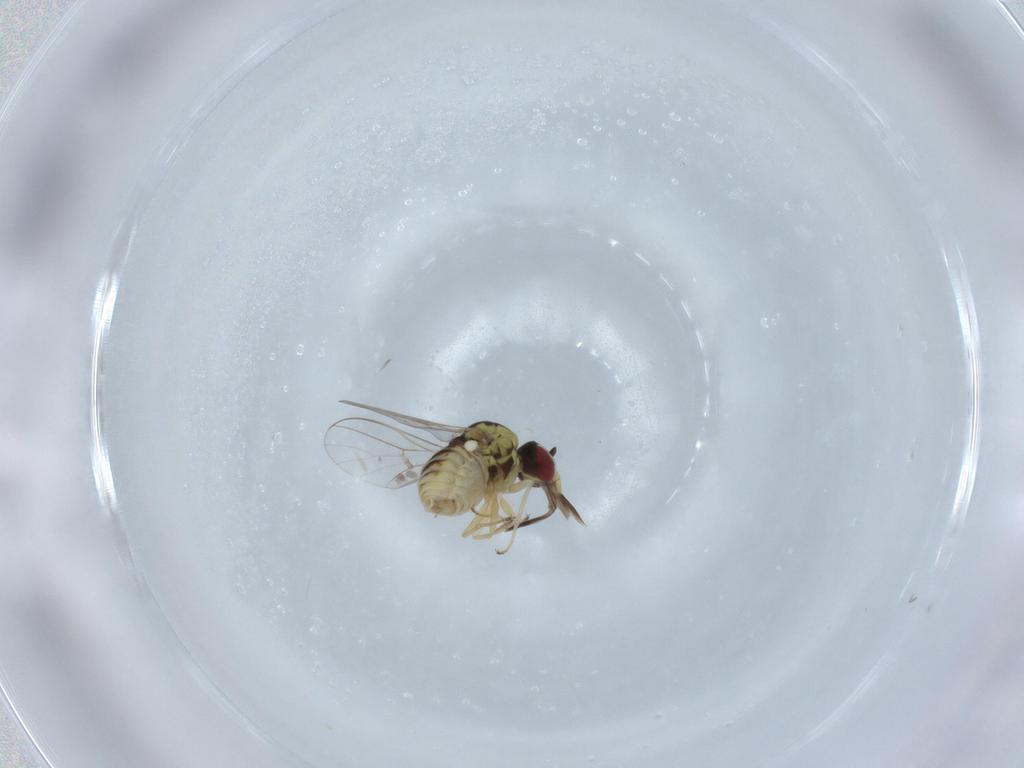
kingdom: Animalia
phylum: Arthropoda
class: Insecta
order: Diptera
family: Bombyliidae
